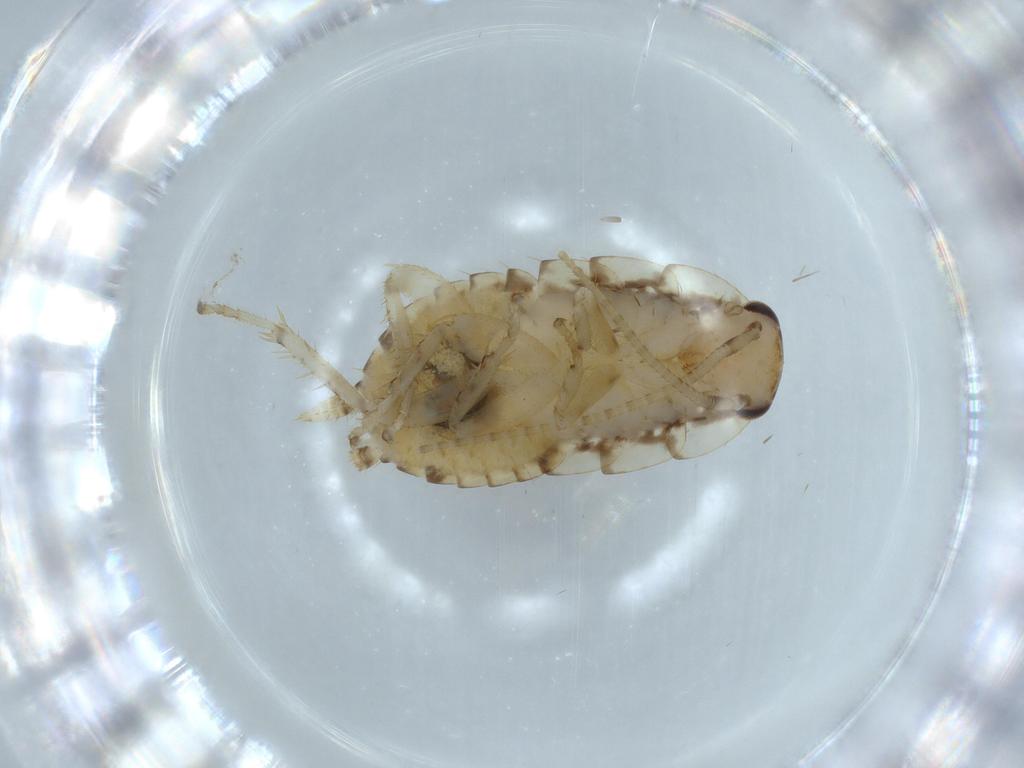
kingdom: Animalia
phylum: Arthropoda
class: Insecta
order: Blattodea
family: Ectobiidae
